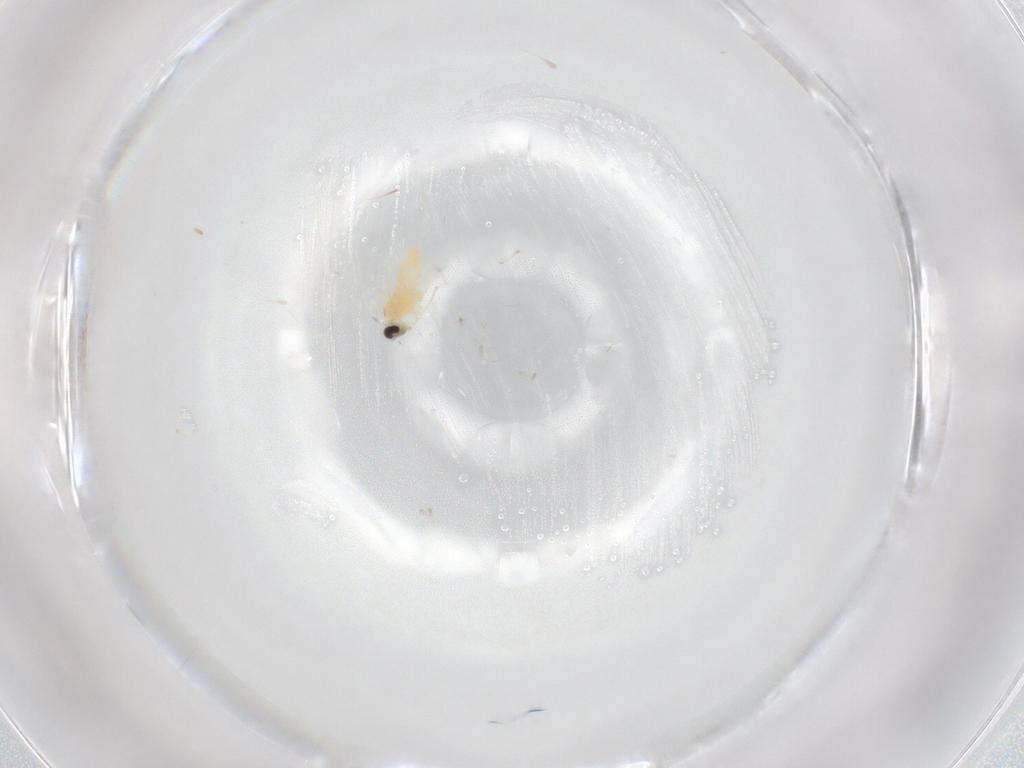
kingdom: Animalia
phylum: Arthropoda
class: Insecta
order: Diptera
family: Cecidomyiidae
